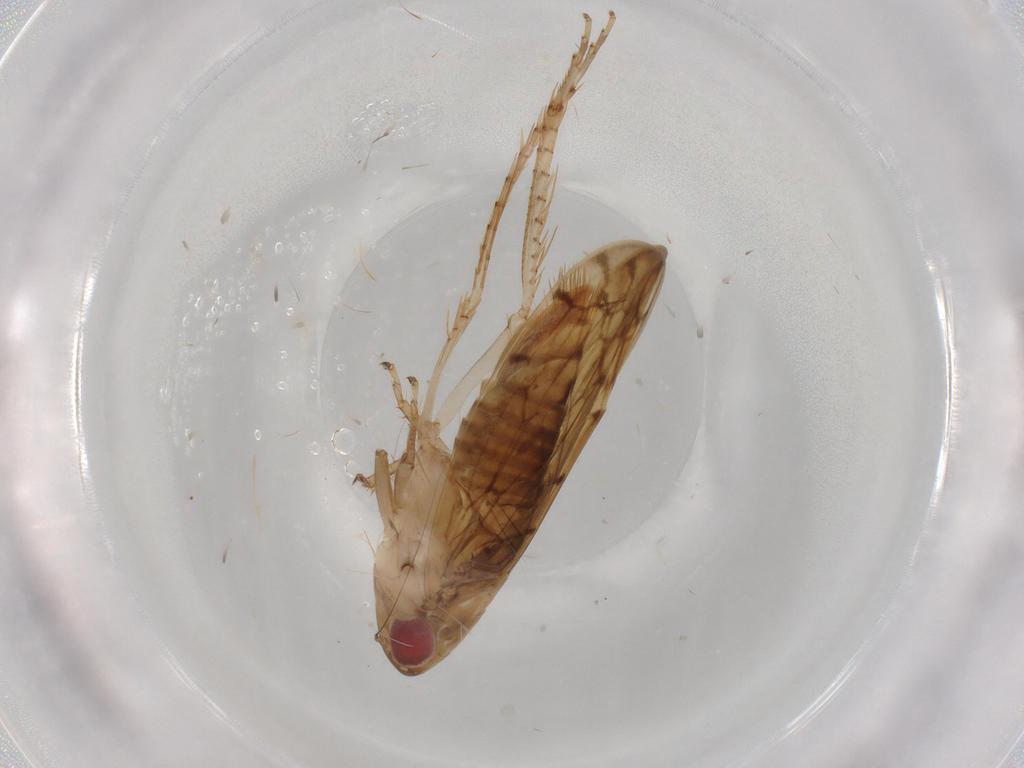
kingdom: Animalia
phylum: Arthropoda
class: Insecta
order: Hemiptera
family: Cicadellidae
